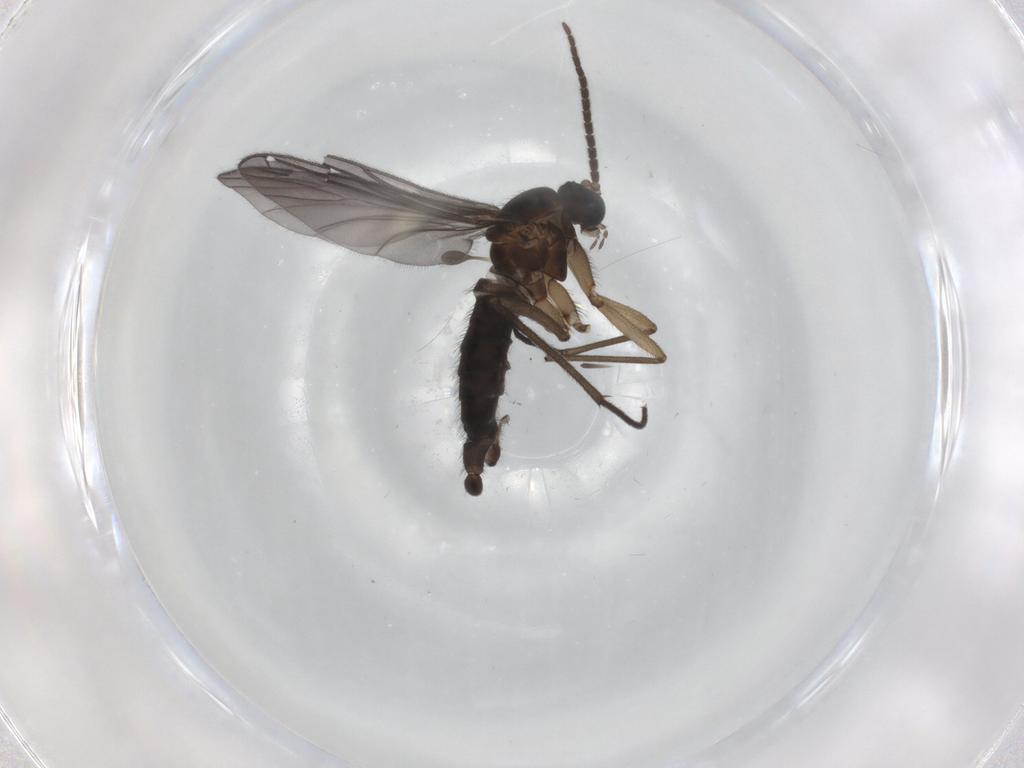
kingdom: Animalia
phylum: Arthropoda
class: Insecta
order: Diptera
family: Sciaridae
